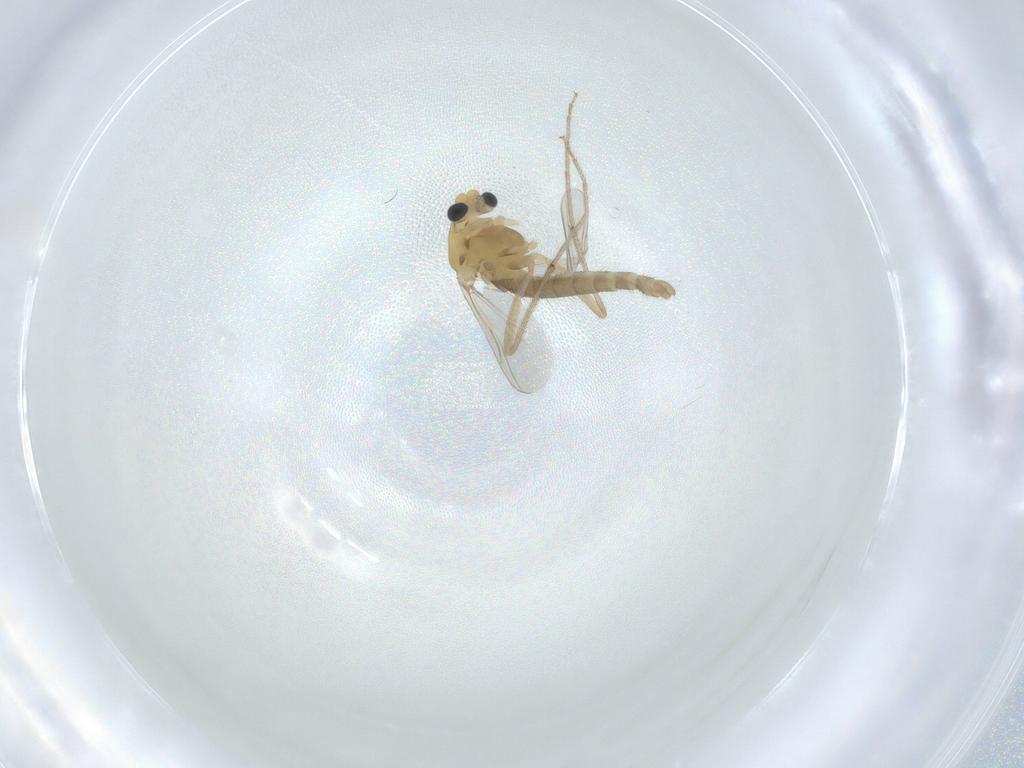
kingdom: Animalia
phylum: Arthropoda
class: Insecta
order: Diptera
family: Chironomidae
